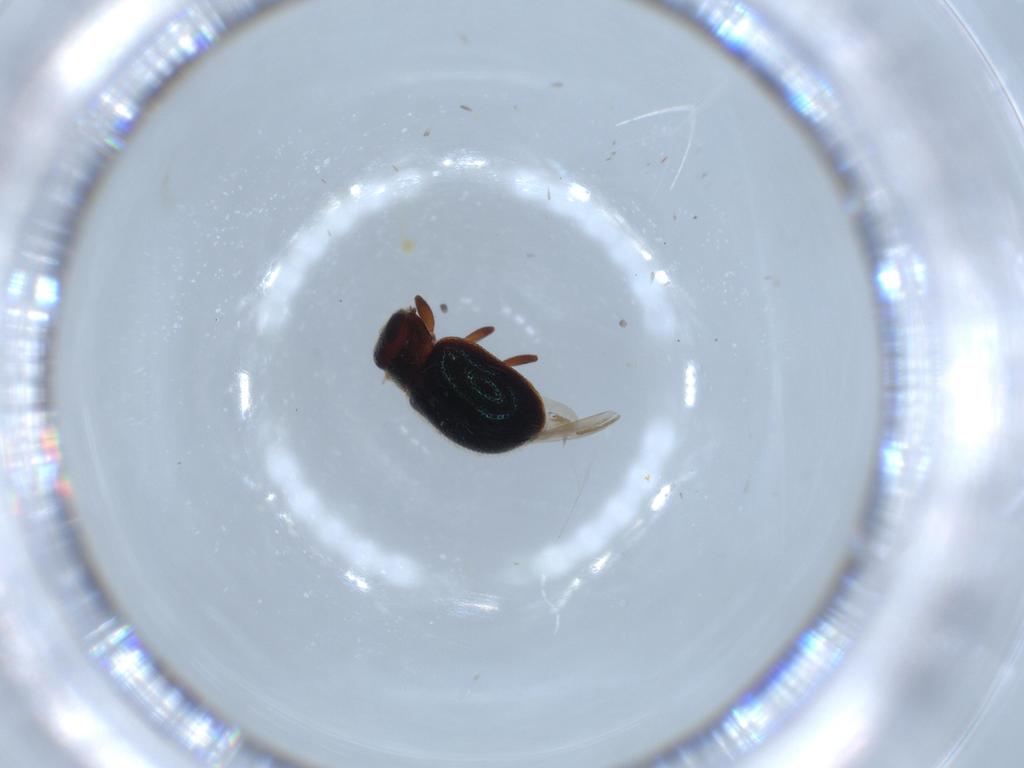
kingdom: Animalia
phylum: Arthropoda
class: Insecta
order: Coleoptera
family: Coccinellidae
